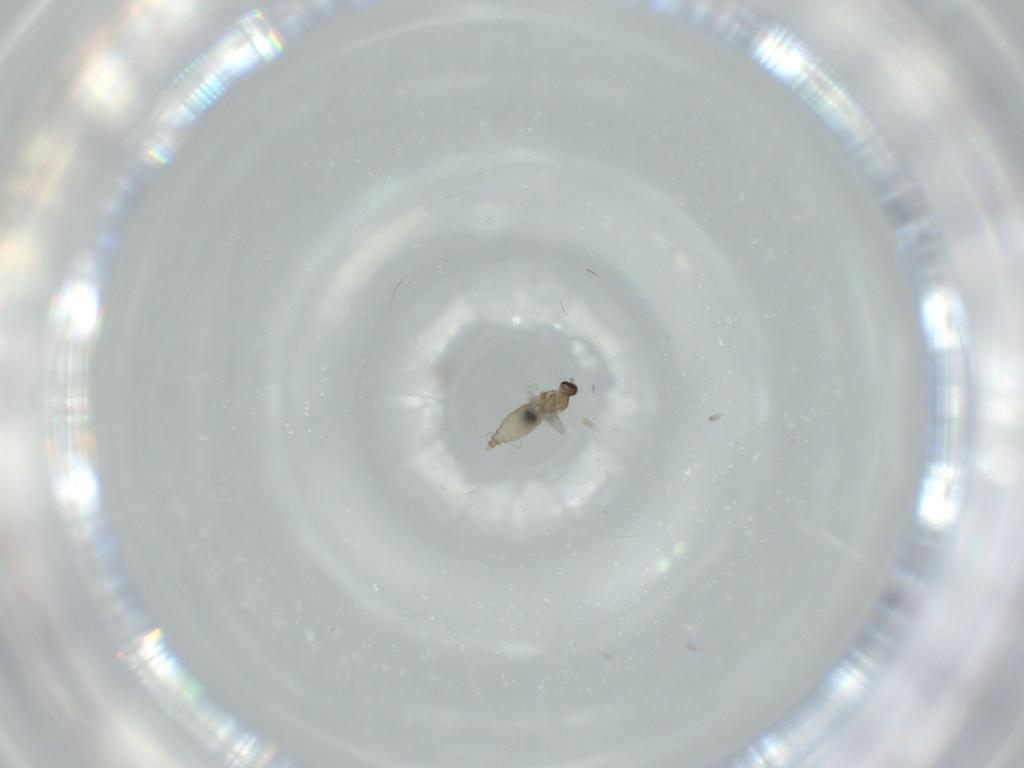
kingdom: Animalia
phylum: Arthropoda
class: Insecta
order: Diptera
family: Cecidomyiidae
